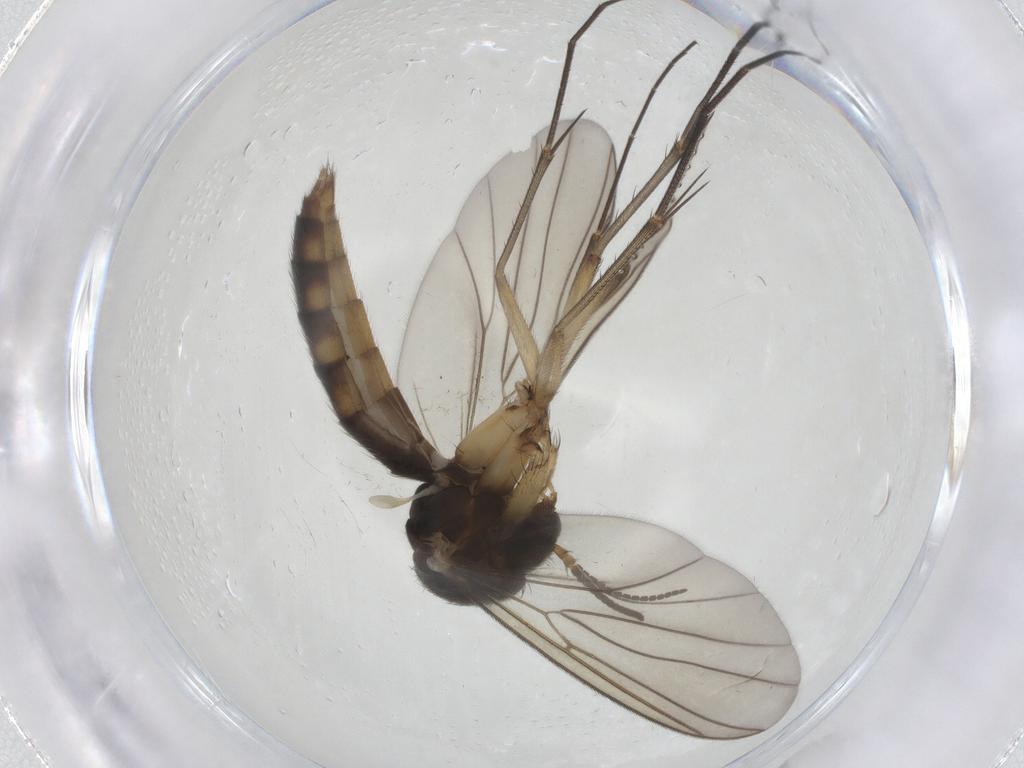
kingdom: Animalia
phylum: Arthropoda
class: Insecta
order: Diptera
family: Mycetophilidae
